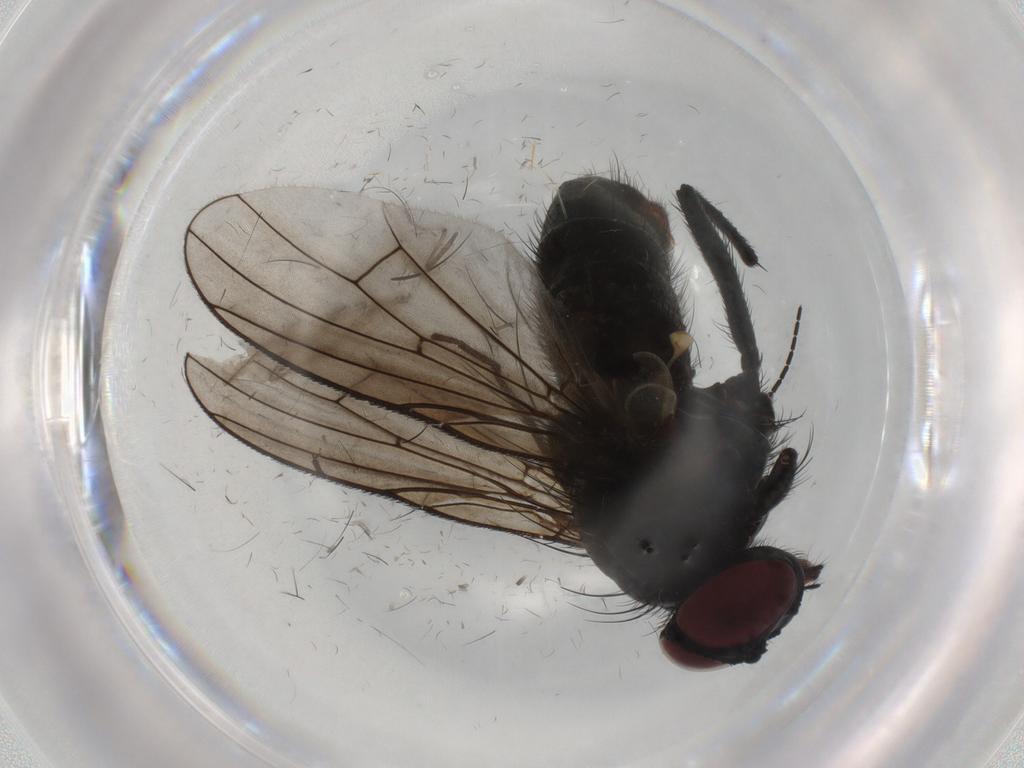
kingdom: Animalia
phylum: Arthropoda
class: Insecta
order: Diptera
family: Muscidae
